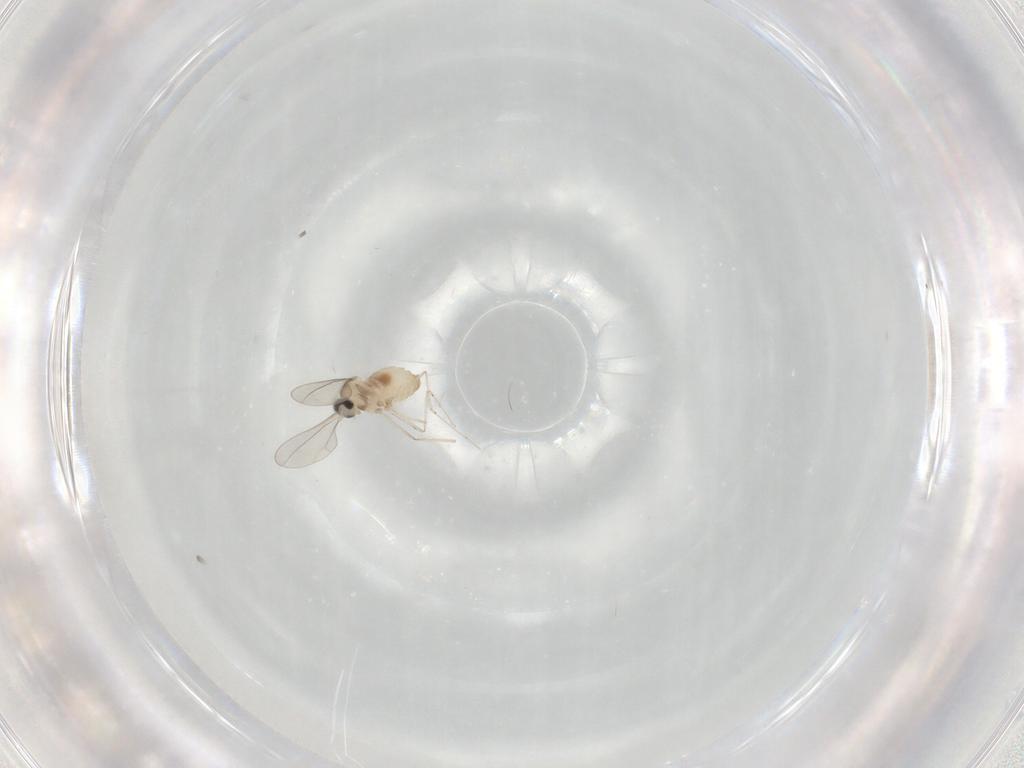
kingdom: Animalia
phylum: Arthropoda
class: Insecta
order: Diptera
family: Cecidomyiidae
